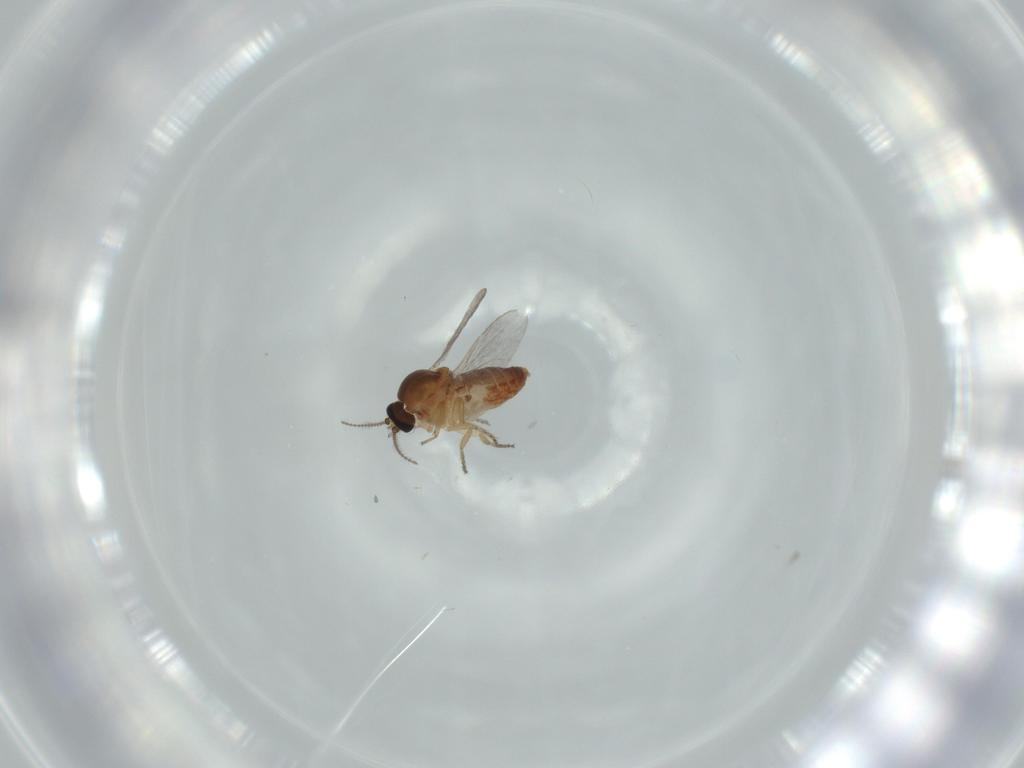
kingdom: Animalia
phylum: Arthropoda
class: Insecta
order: Diptera
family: Ceratopogonidae
